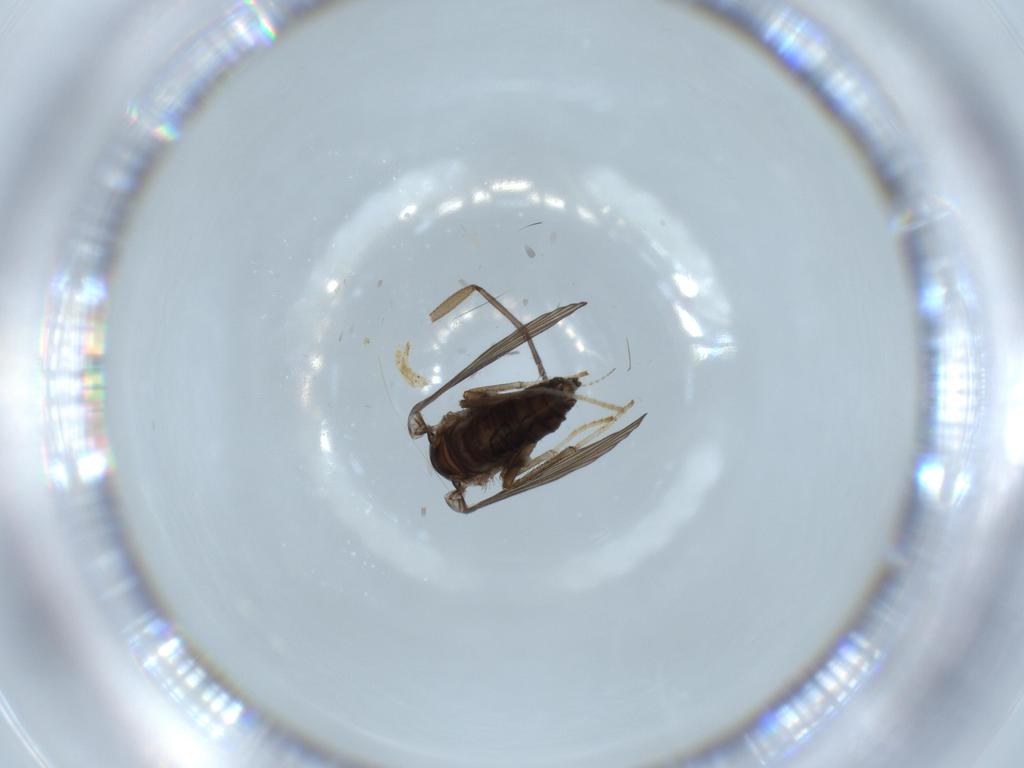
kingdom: Animalia
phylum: Arthropoda
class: Insecta
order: Diptera
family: Psychodidae
